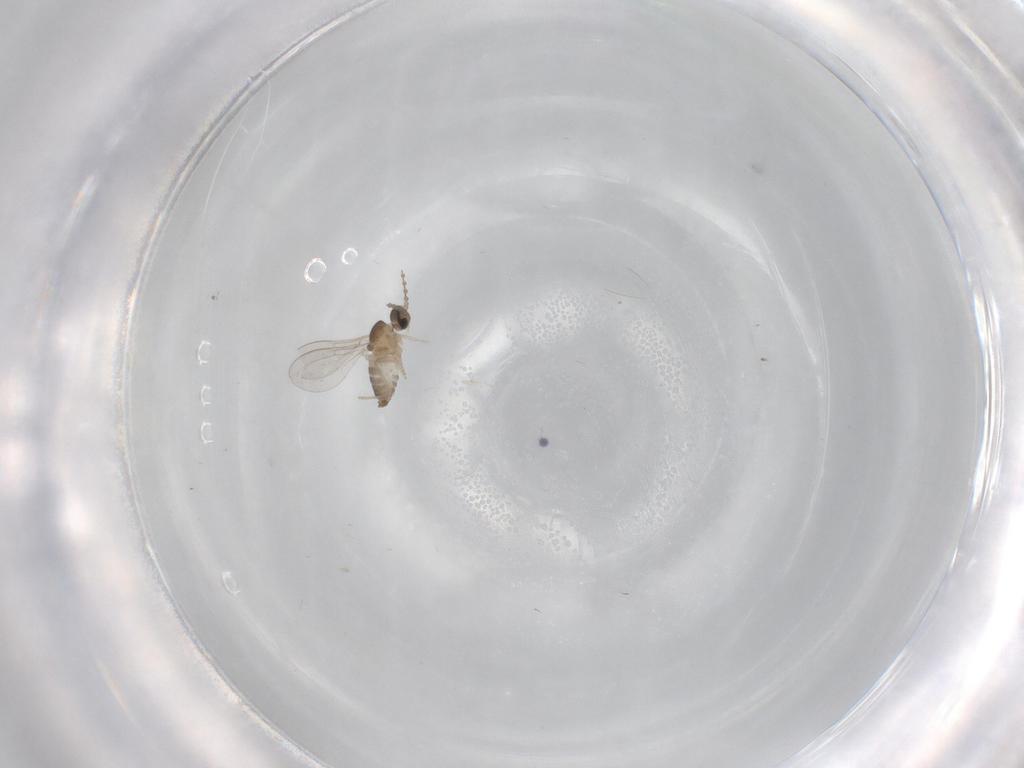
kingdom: Animalia
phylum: Arthropoda
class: Insecta
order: Diptera
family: Cecidomyiidae
